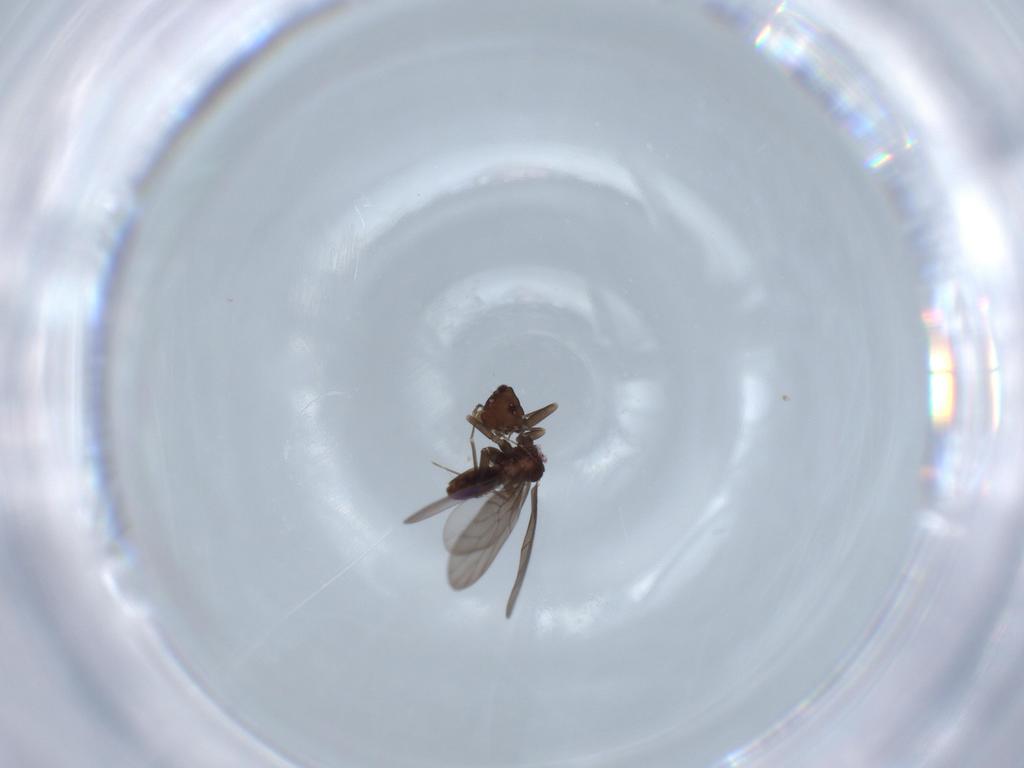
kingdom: Animalia
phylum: Arthropoda
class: Insecta
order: Psocodea
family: Lepidopsocidae
